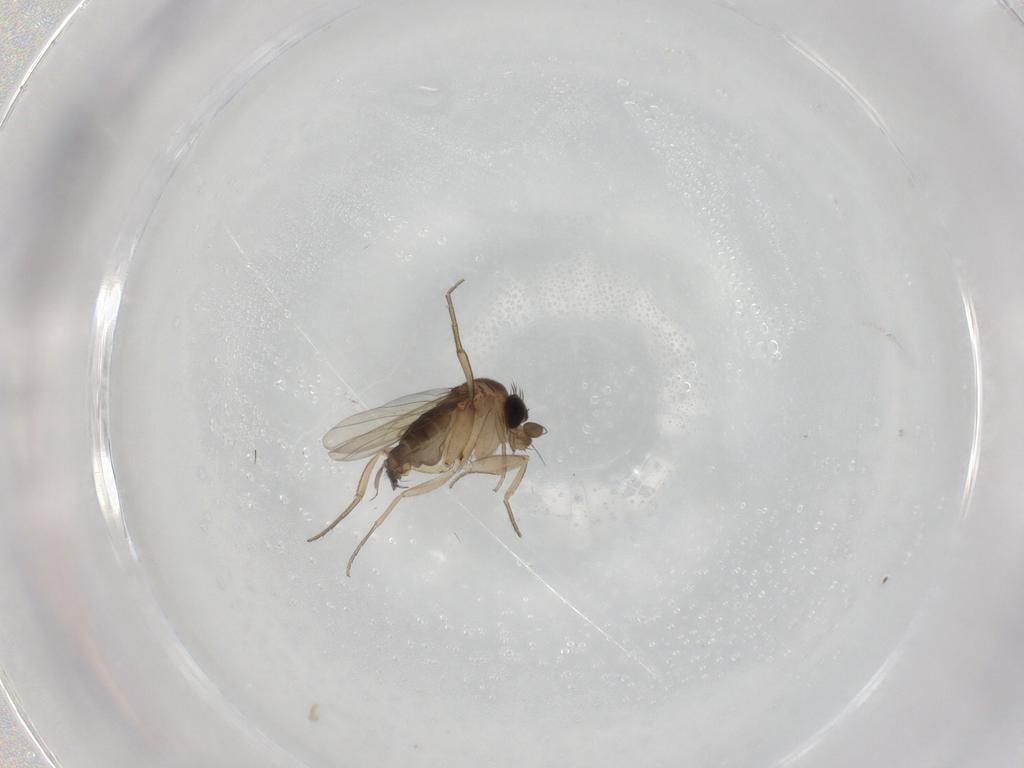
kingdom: Animalia
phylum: Arthropoda
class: Insecta
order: Diptera
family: Phoridae
